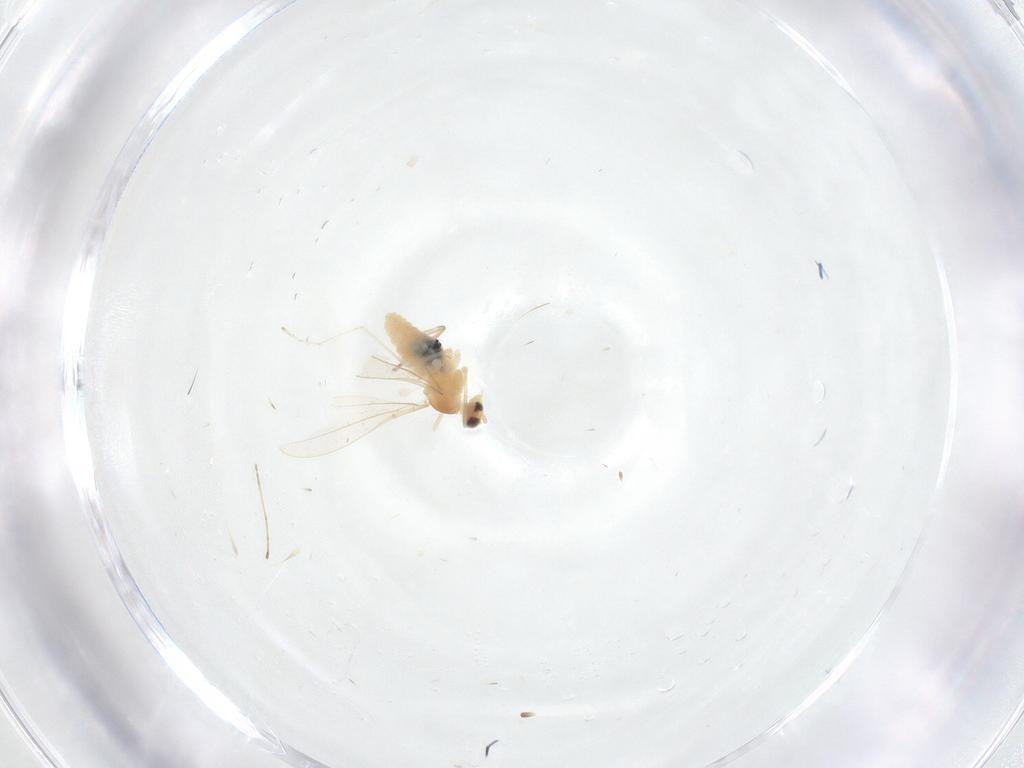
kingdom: Animalia
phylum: Arthropoda
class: Insecta
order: Diptera
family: Cecidomyiidae
